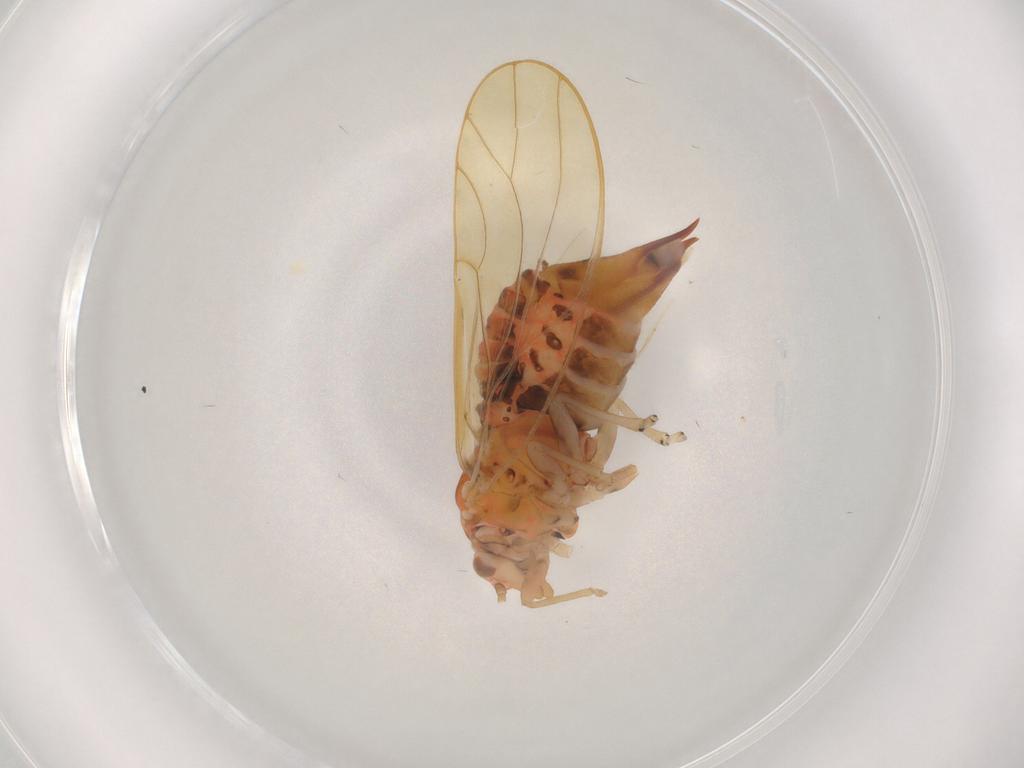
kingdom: Animalia
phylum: Arthropoda
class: Insecta
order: Hemiptera
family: Psyllidae
